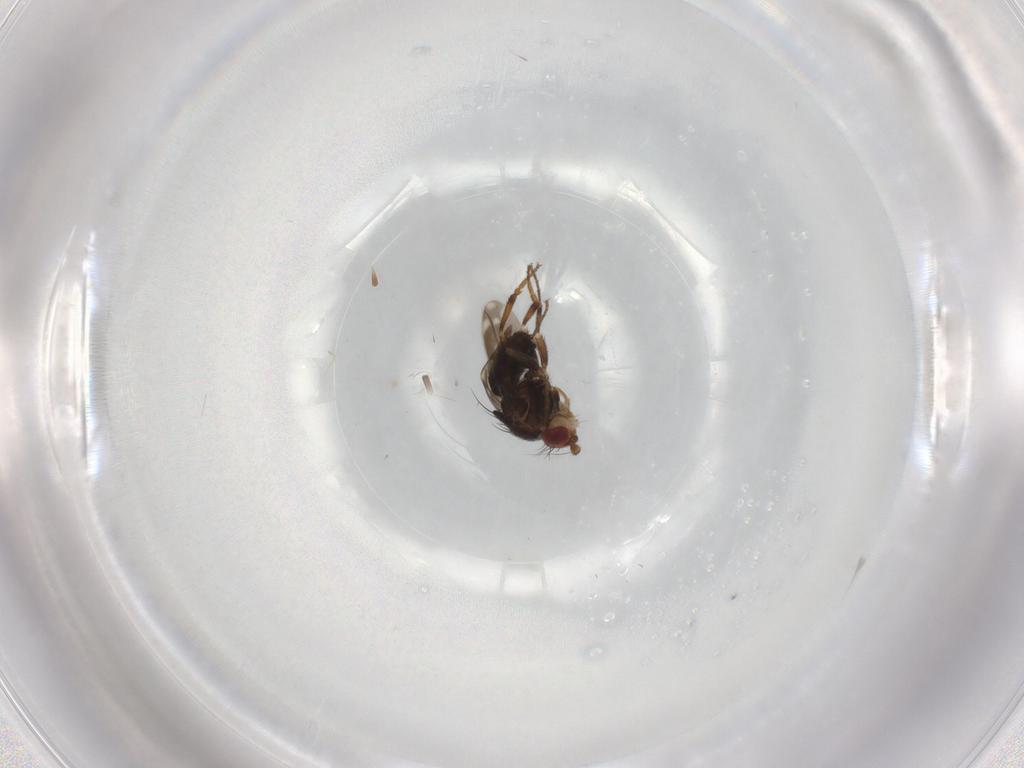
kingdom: Animalia
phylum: Arthropoda
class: Insecta
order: Diptera
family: Sphaeroceridae
